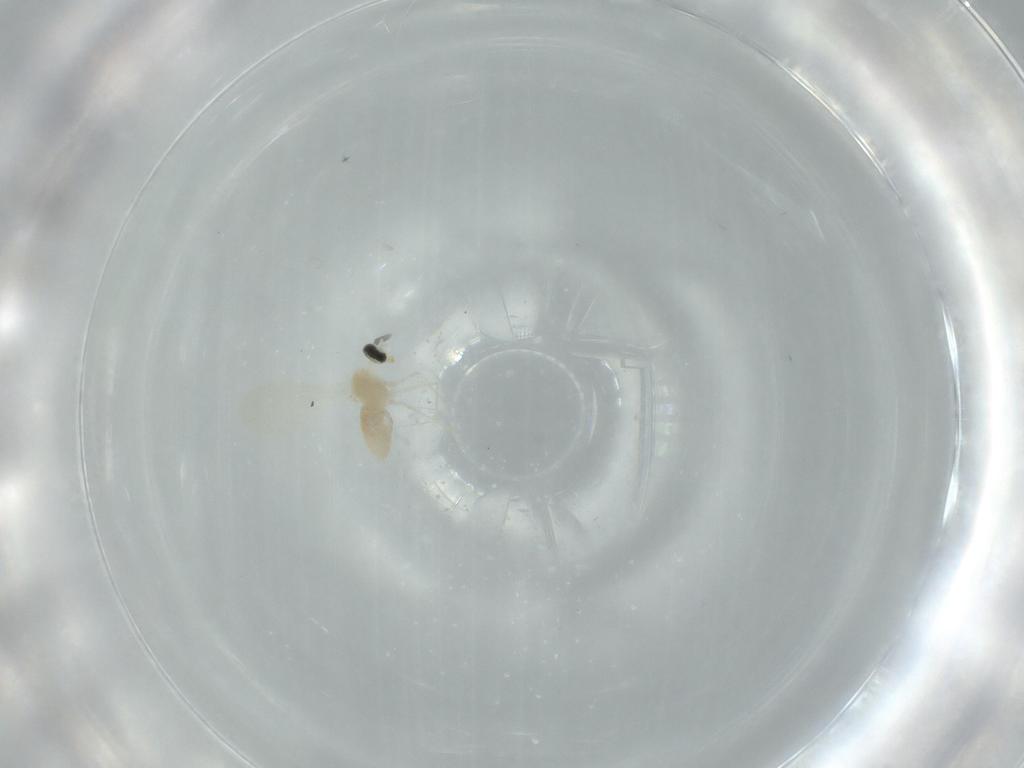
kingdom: Animalia
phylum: Arthropoda
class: Insecta
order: Diptera
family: Cecidomyiidae
